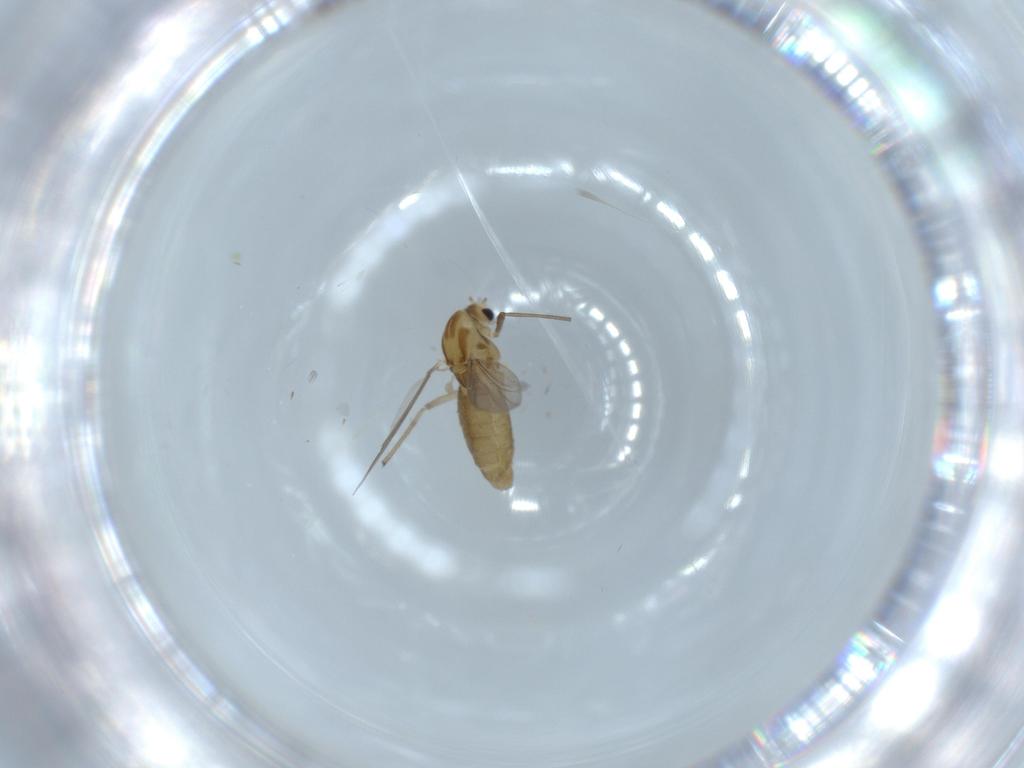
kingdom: Animalia
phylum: Arthropoda
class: Insecta
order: Diptera
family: Chironomidae
